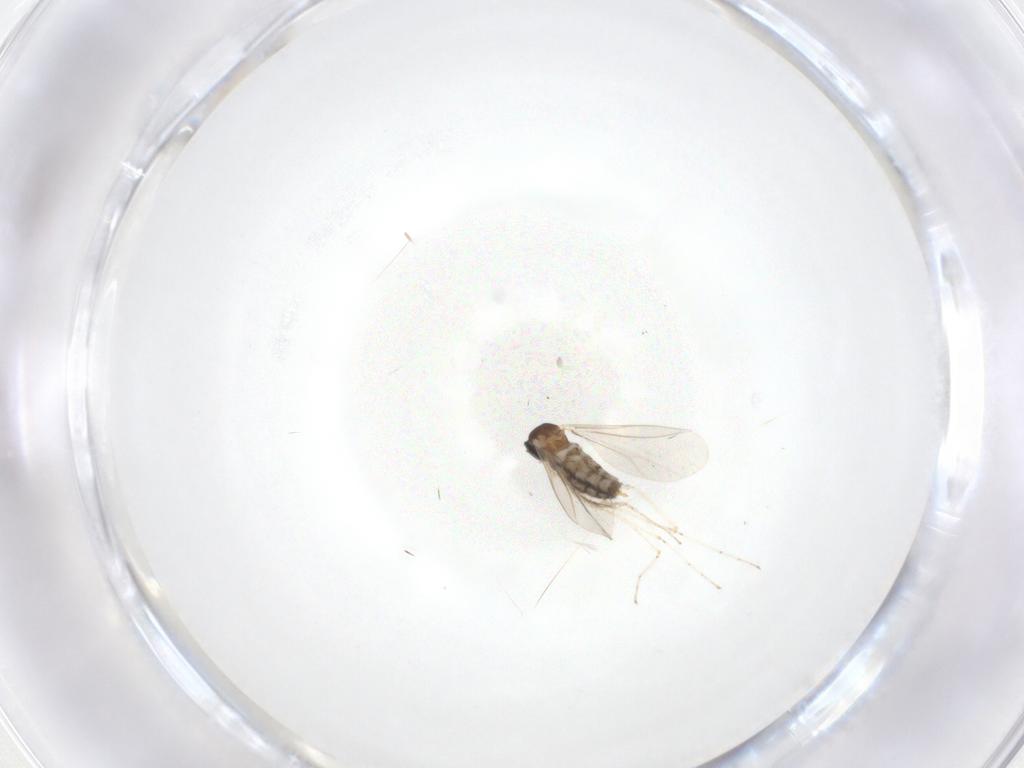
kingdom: Animalia
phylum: Arthropoda
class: Insecta
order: Diptera
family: Cecidomyiidae
